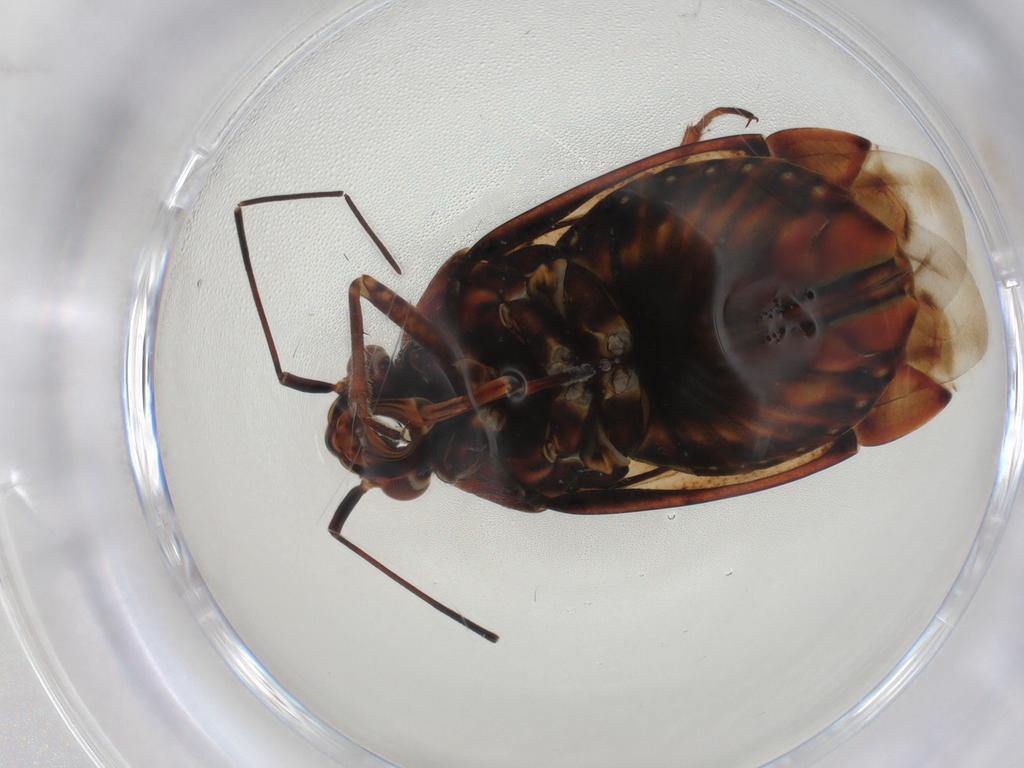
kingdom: Animalia
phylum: Arthropoda
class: Insecta
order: Hemiptera
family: Miridae
